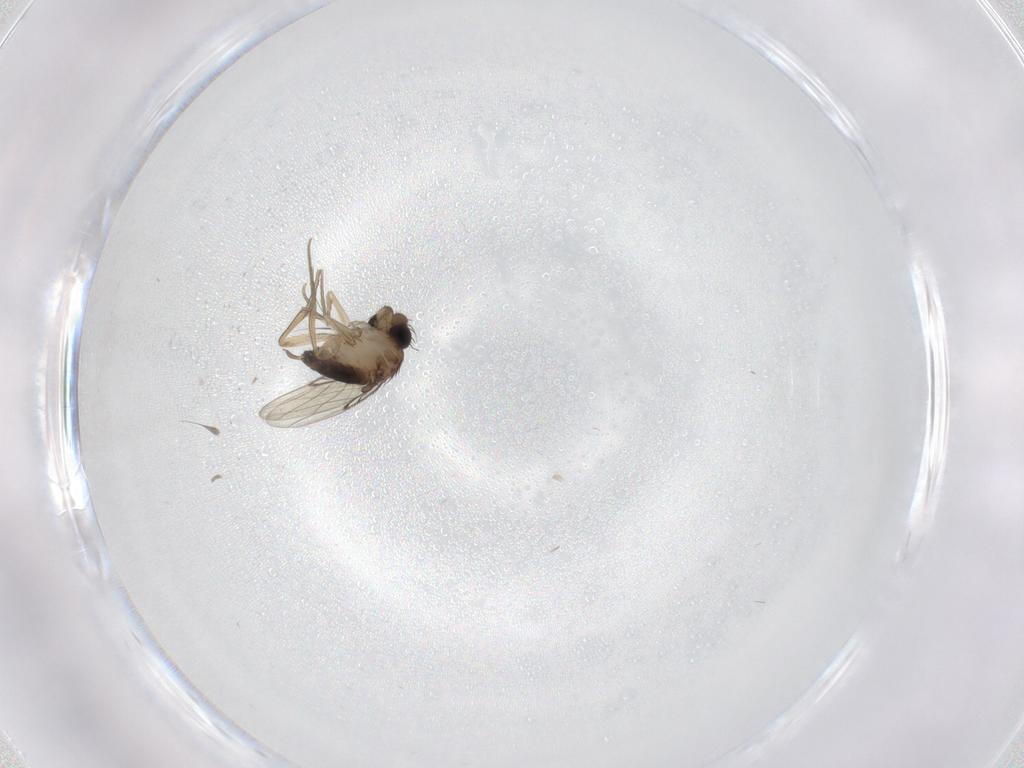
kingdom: Animalia
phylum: Arthropoda
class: Insecta
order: Diptera
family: Phoridae
